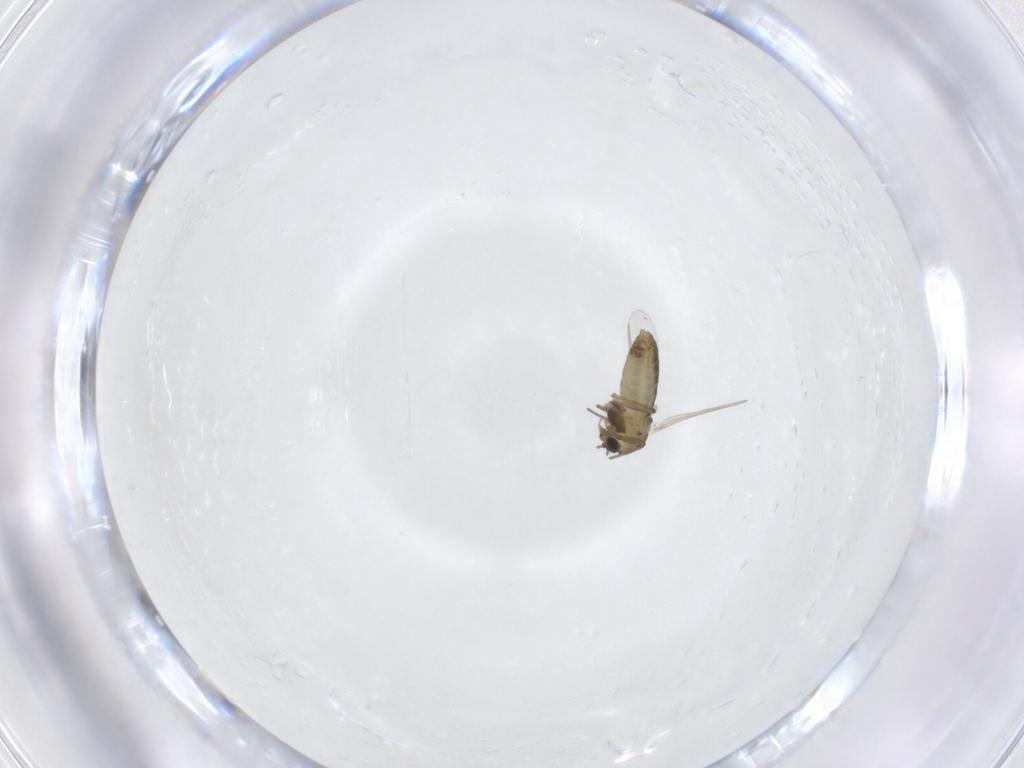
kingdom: Animalia
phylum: Arthropoda
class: Insecta
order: Diptera
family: Chironomidae
